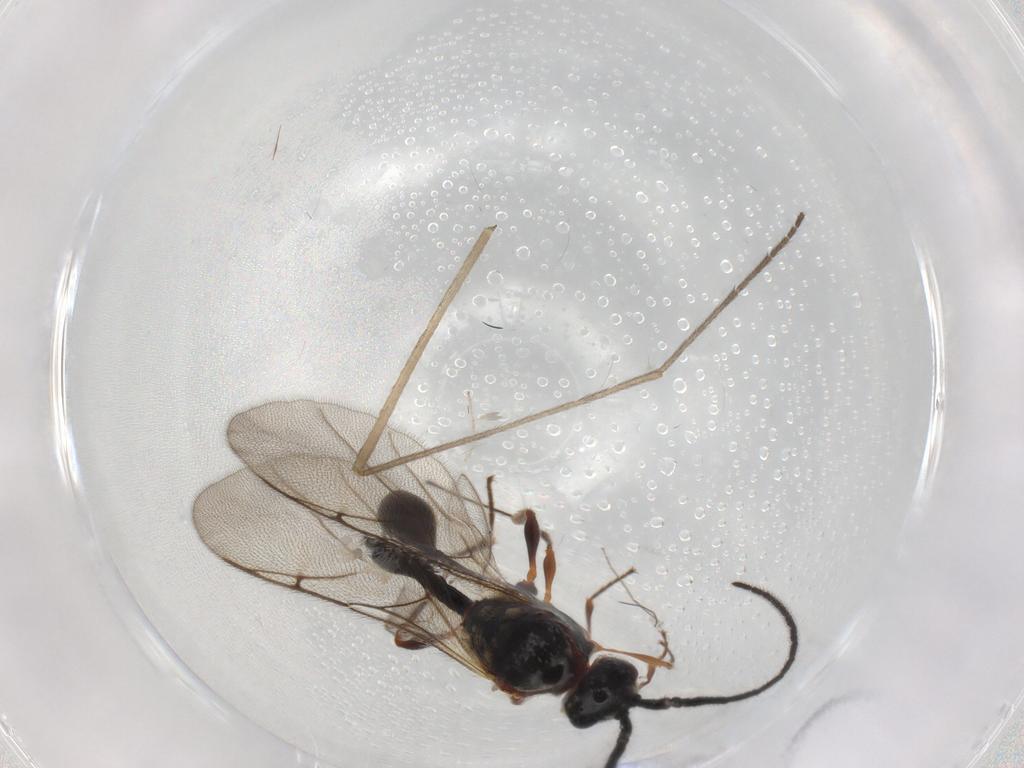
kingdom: Animalia
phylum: Arthropoda
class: Insecta
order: Hymenoptera
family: Diapriidae
